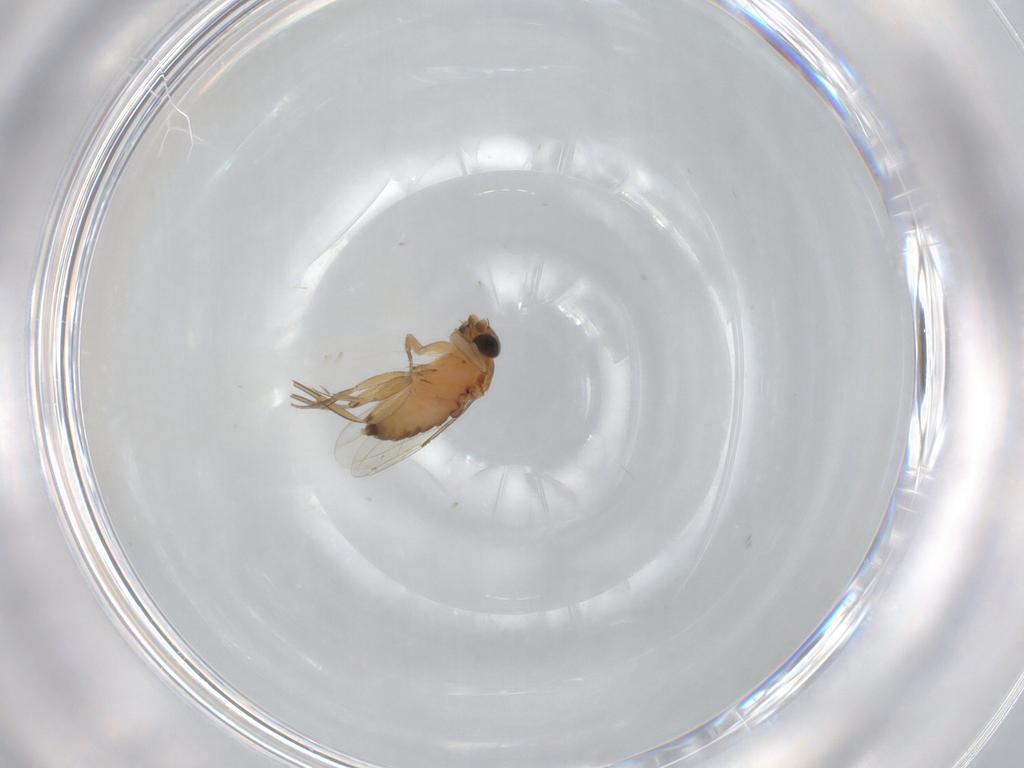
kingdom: Animalia
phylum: Arthropoda
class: Insecta
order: Diptera
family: Phoridae
